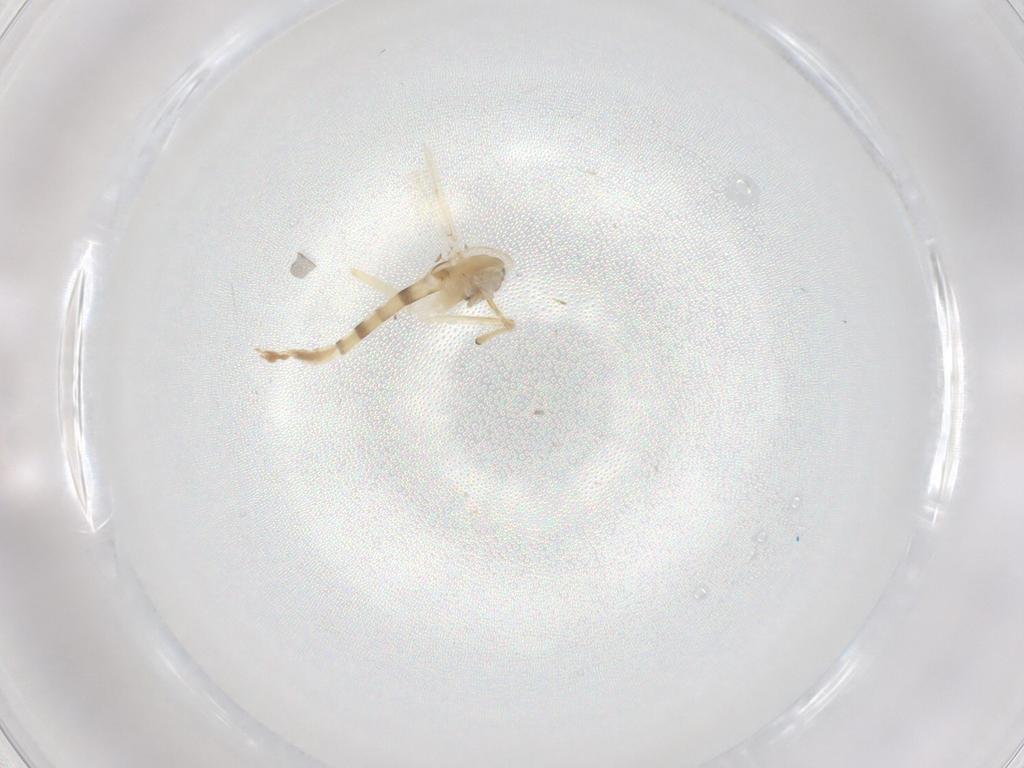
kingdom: Animalia
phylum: Arthropoda
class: Insecta
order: Diptera
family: Chironomidae
